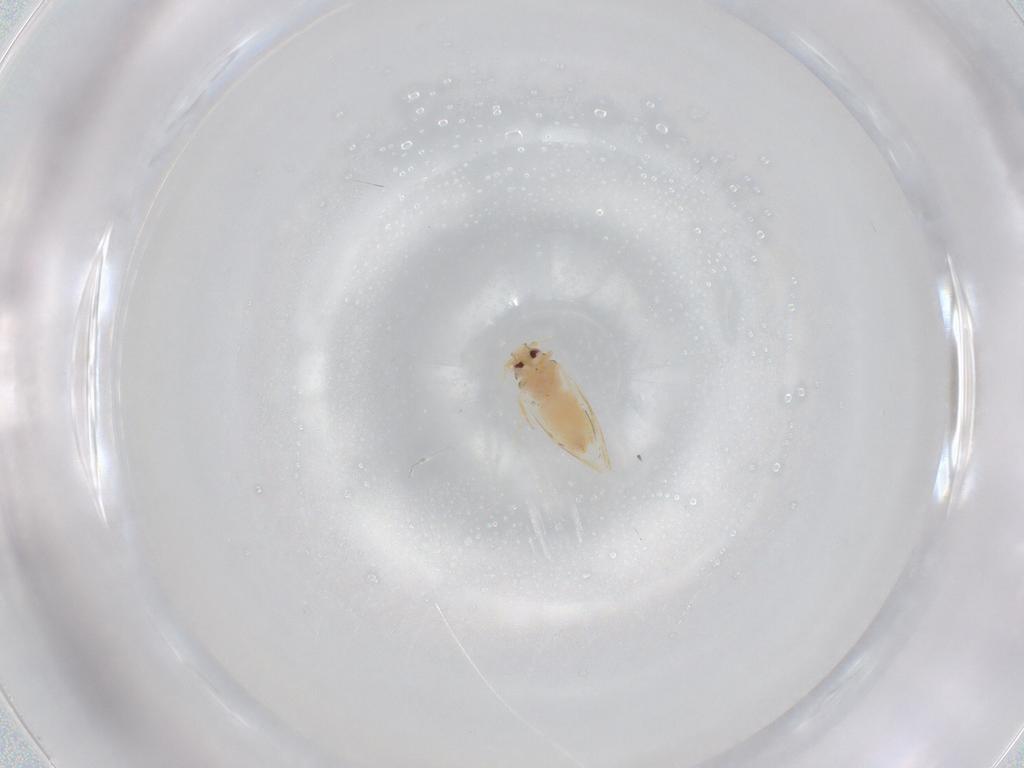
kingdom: Animalia
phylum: Arthropoda
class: Insecta
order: Hemiptera
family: Aleyrodidae
